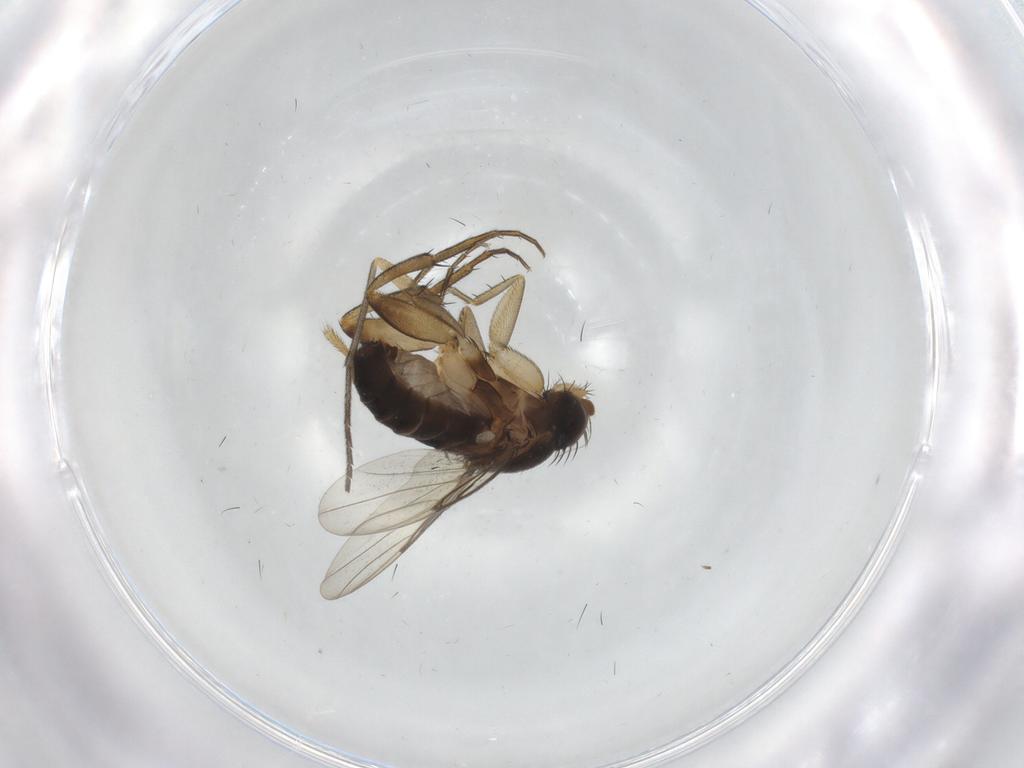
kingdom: Animalia
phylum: Arthropoda
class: Insecta
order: Diptera
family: Phoridae
